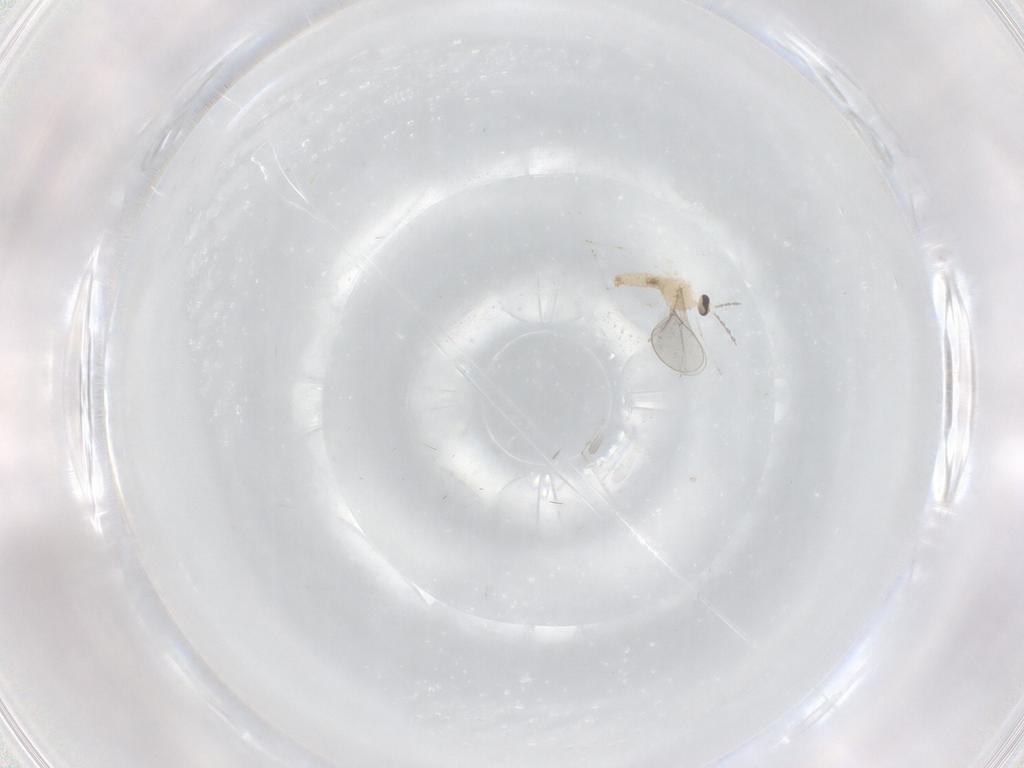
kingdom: Animalia
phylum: Arthropoda
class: Insecta
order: Diptera
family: Cecidomyiidae
